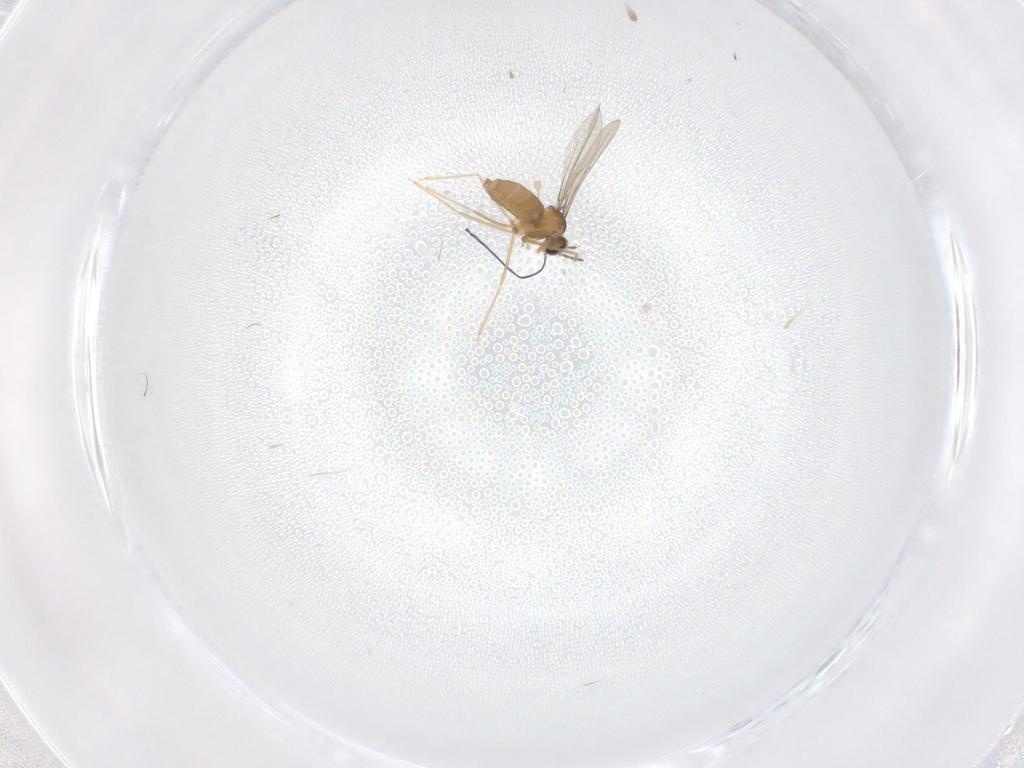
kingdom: Animalia
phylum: Arthropoda
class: Insecta
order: Diptera
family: Cecidomyiidae
